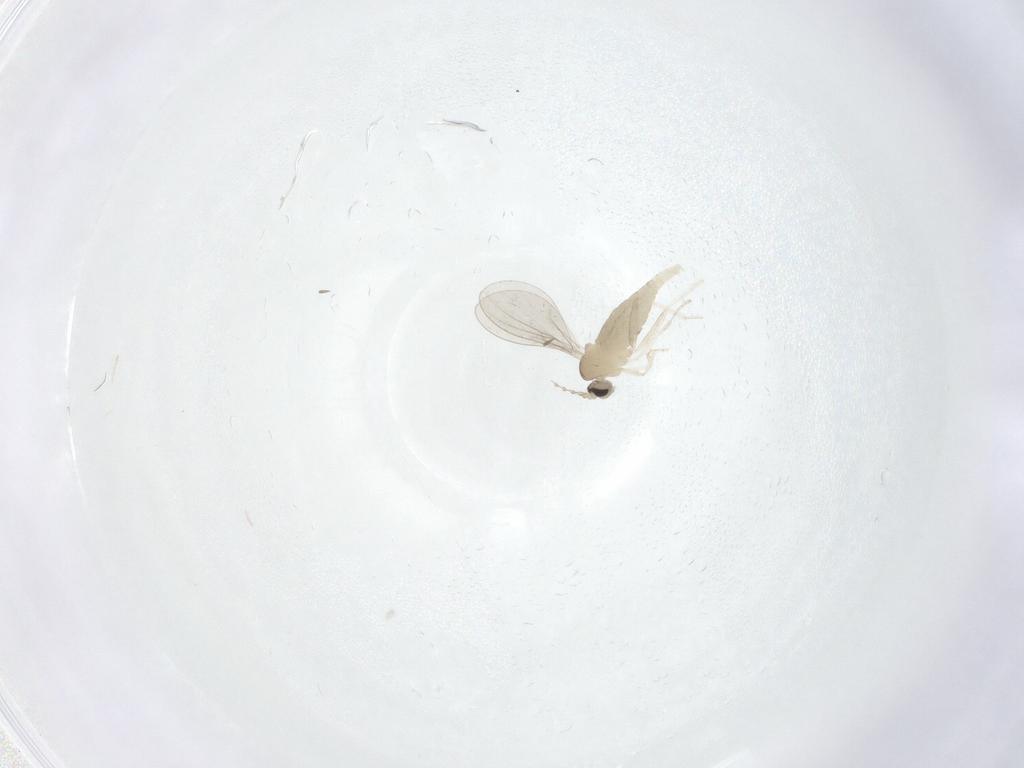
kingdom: Animalia
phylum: Arthropoda
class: Insecta
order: Diptera
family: Cecidomyiidae
